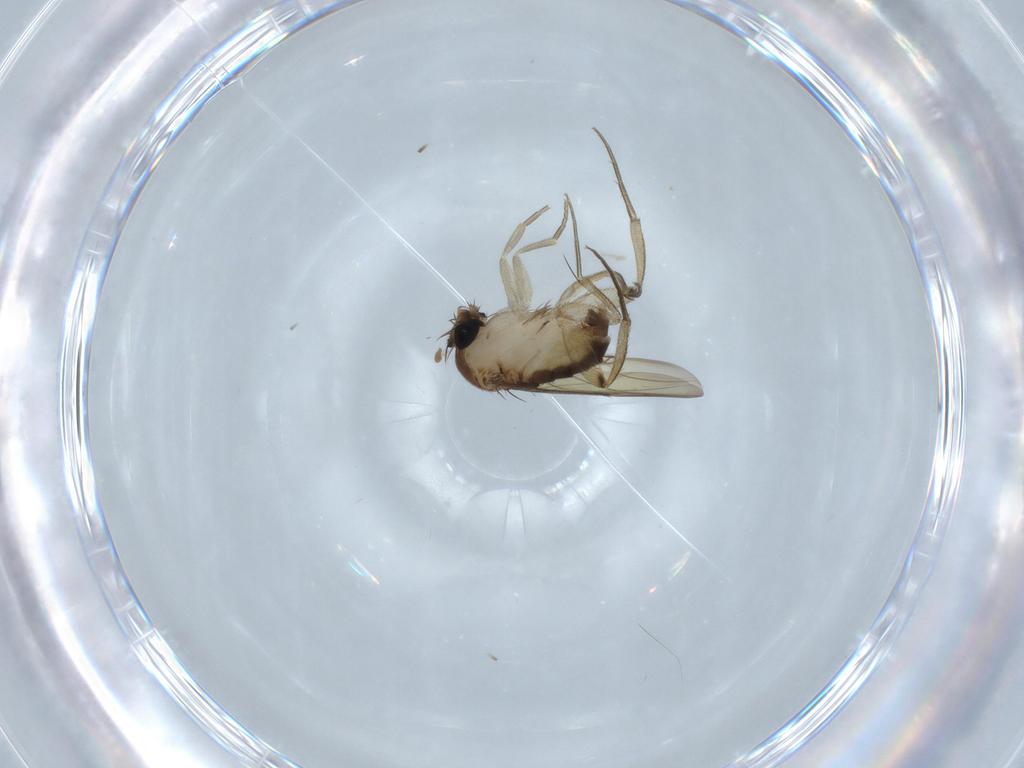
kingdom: Animalia
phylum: Arthropoda
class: Insecta
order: Diptera
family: Phoridae
